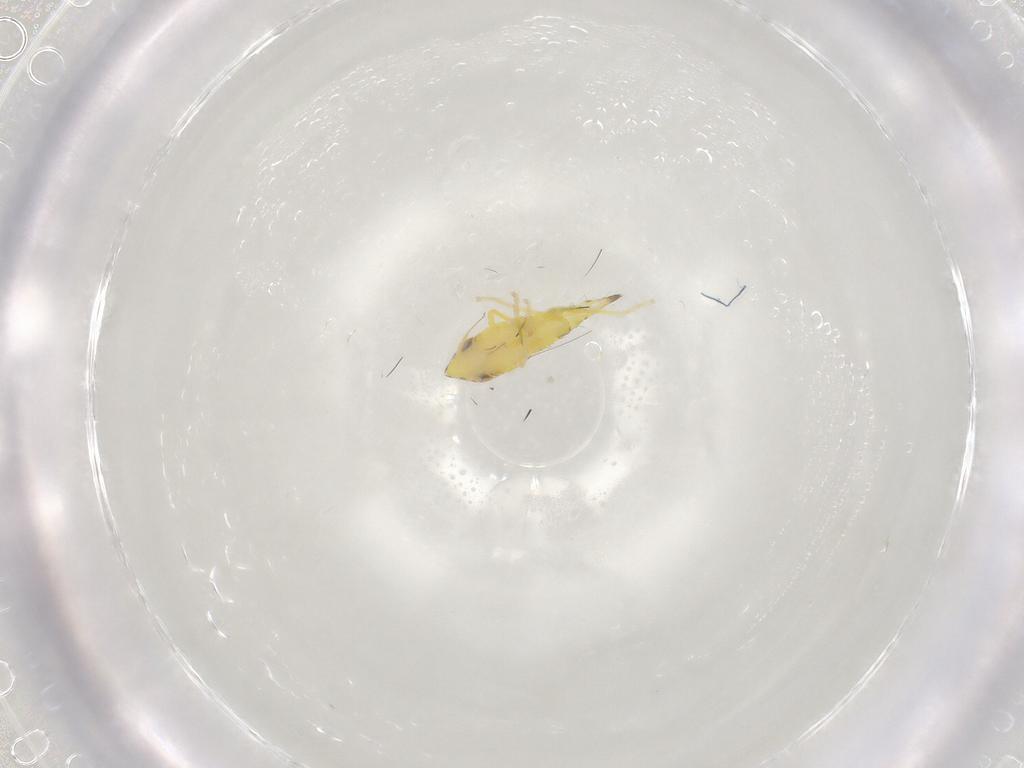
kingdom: Animalia
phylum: Arthropoda
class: Insecta
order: Hemiptera
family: Cicadellidae
